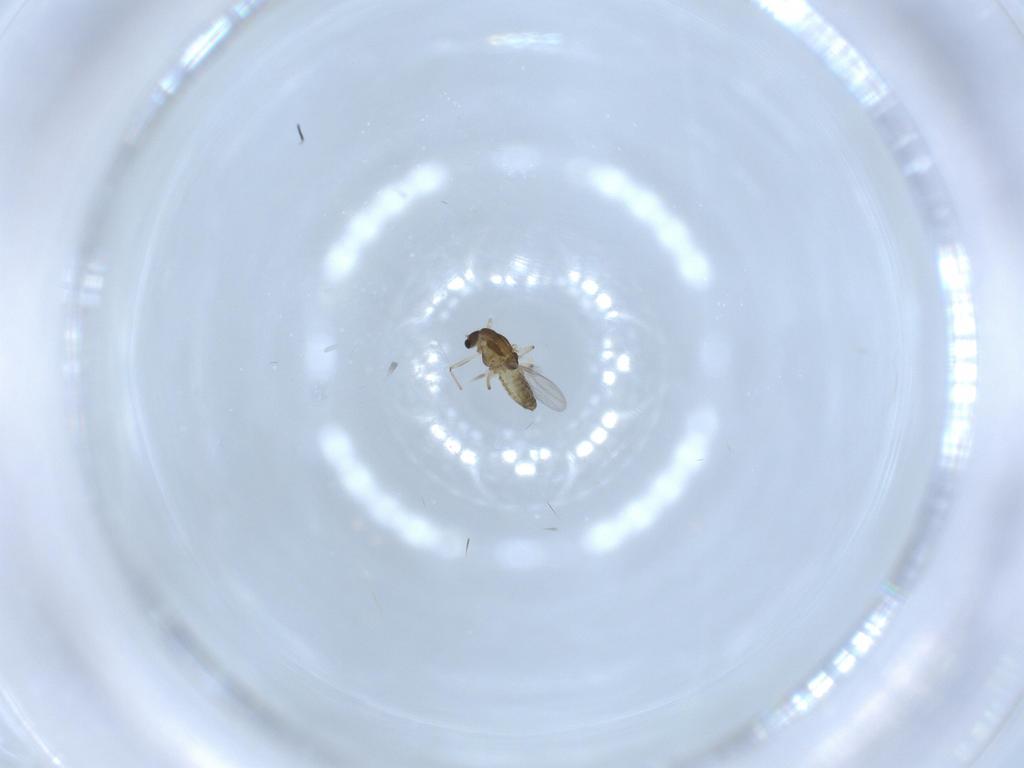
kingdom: Animalia
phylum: Arthropoda
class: Insecta
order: Diptera
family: Chironomidae
